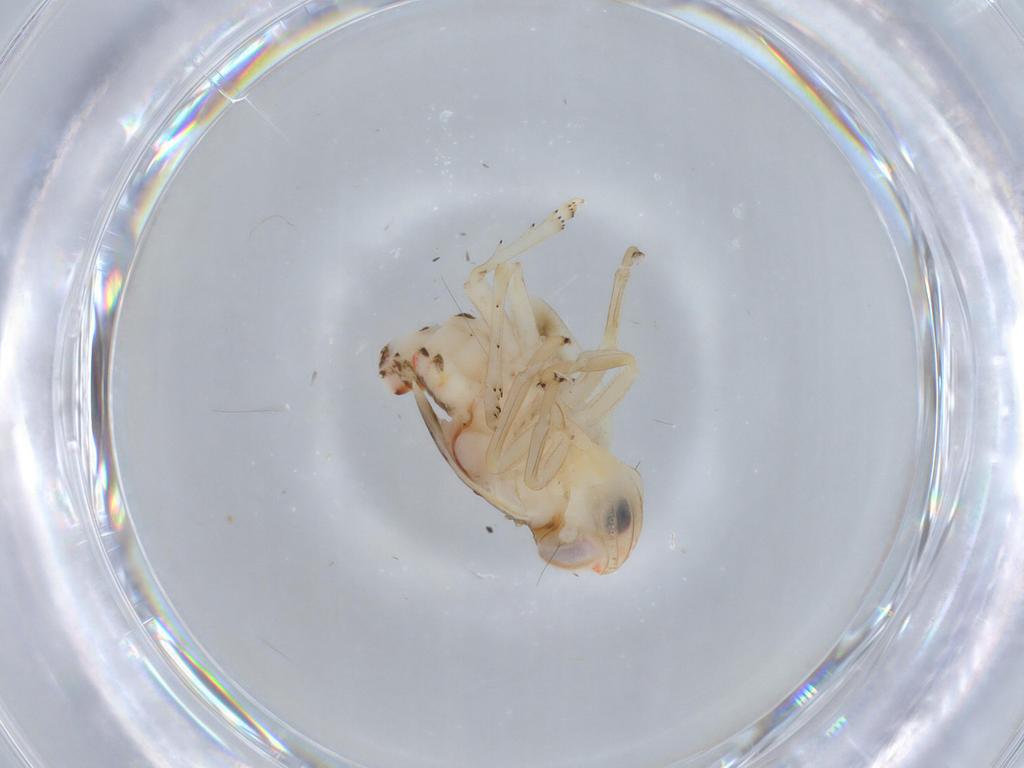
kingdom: Animalia
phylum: Arthropoda
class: Insecta
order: Hemiptera
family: Cicadellidae
